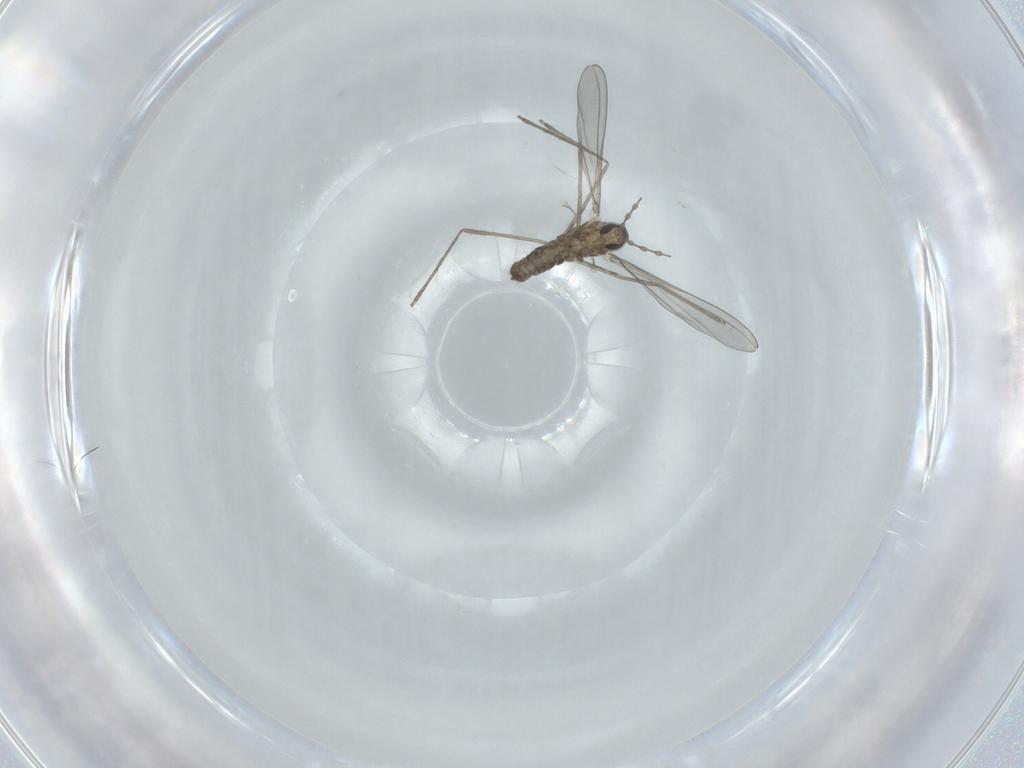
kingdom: Animalia
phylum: Arthropoda
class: Insecta
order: Diptera
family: Cecidomyiidae
